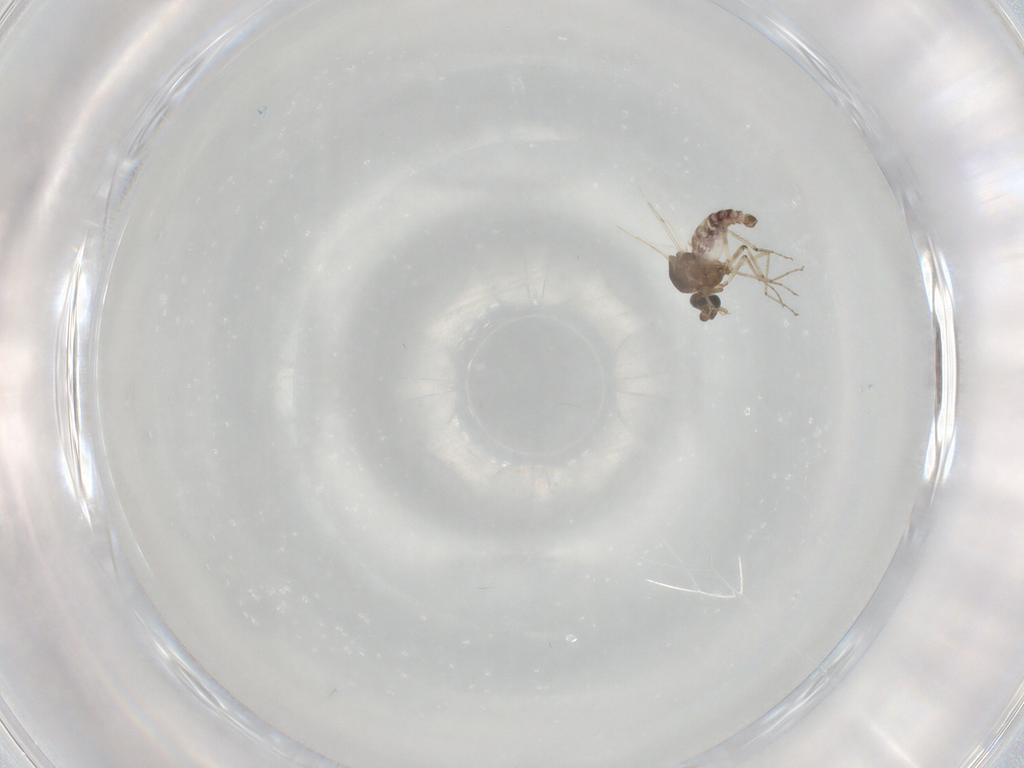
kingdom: Animalia
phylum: Arthropoda
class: Insecta
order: Diptera
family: Ceratopogonidae
